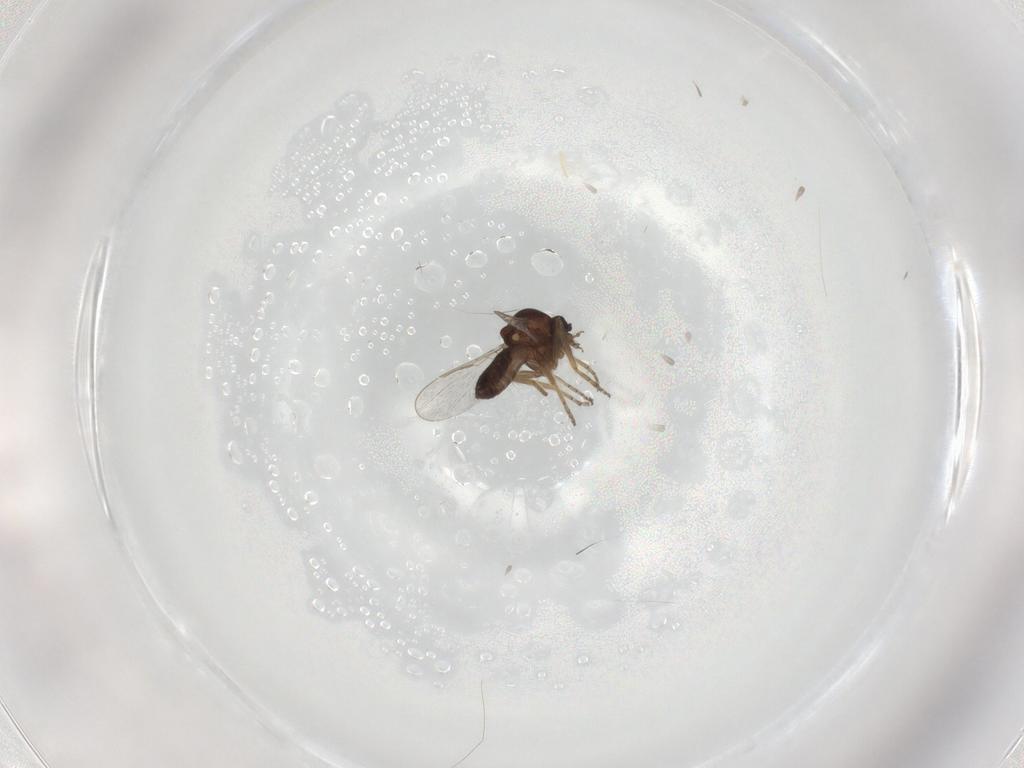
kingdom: Animalia
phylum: Arthropoda
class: Insecta
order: Diptera
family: Ceratopogonidae
